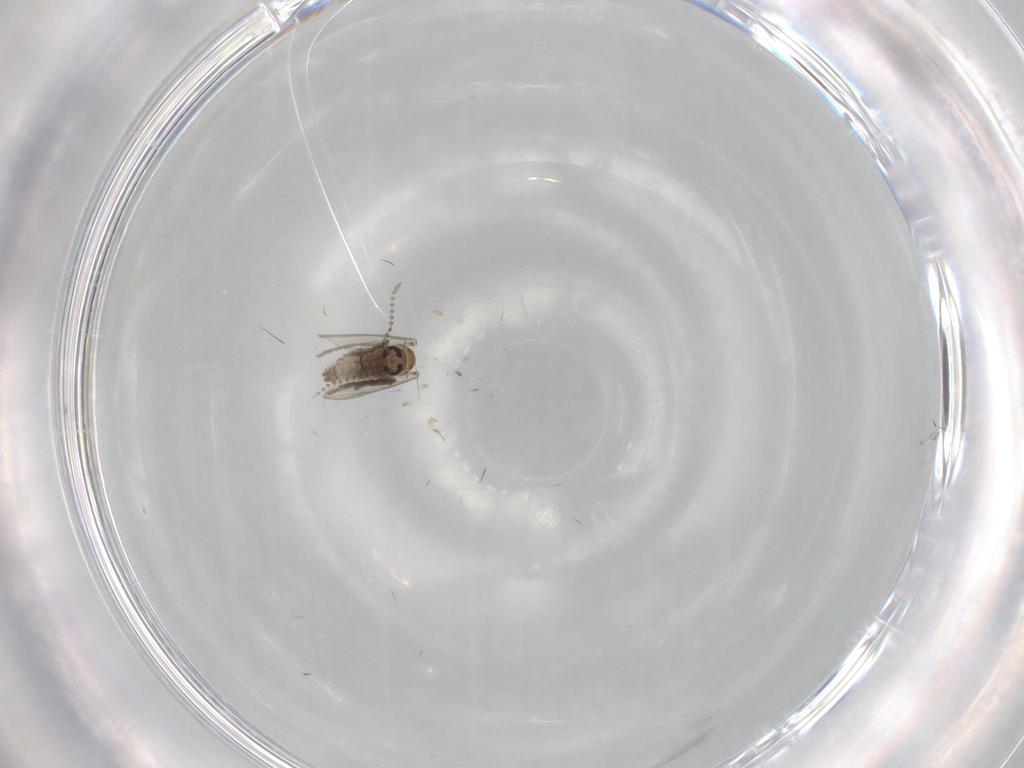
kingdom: Animalia
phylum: Arthropoda
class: Insecta
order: Diptera
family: Psychodidae
